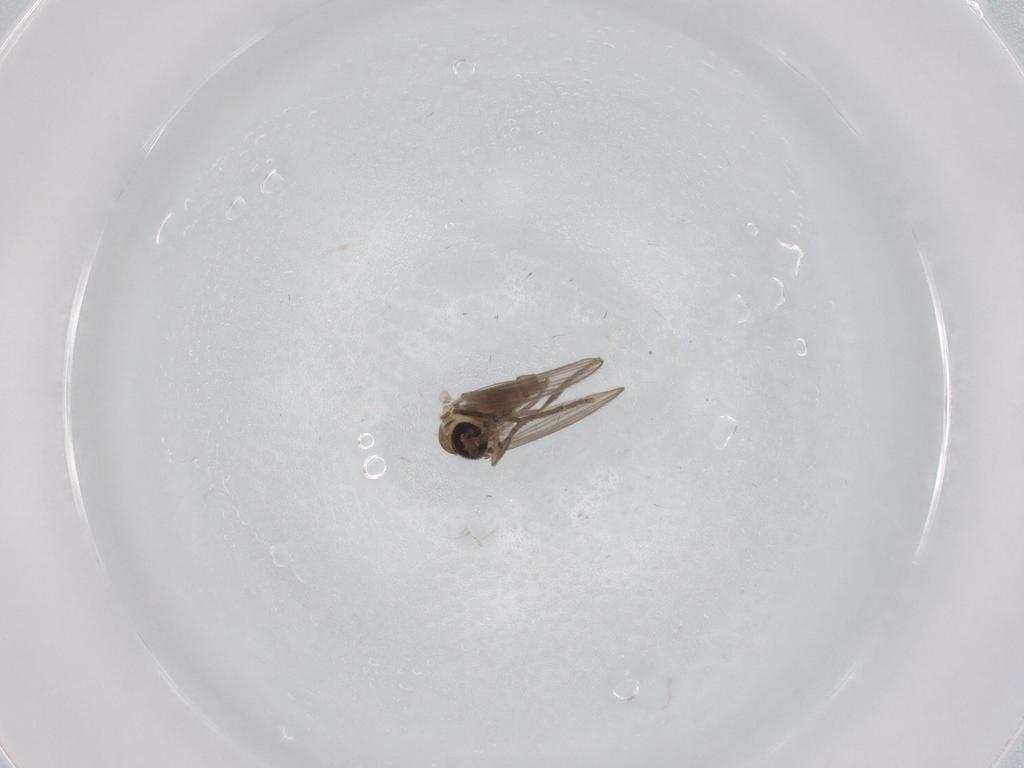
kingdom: Animalia
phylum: Arthropoda
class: Insecta
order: Diptera
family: Psychodidae
